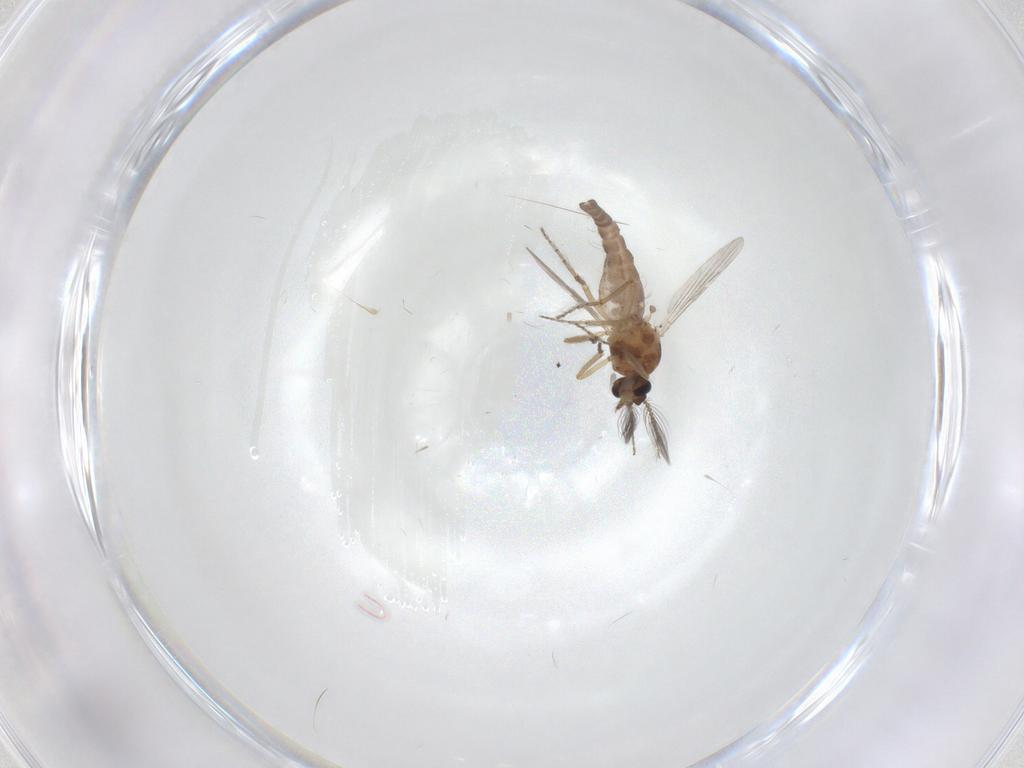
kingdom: Animalia
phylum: Arthropoda
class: Insecta
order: Diptera
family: Ceratopogonidae
